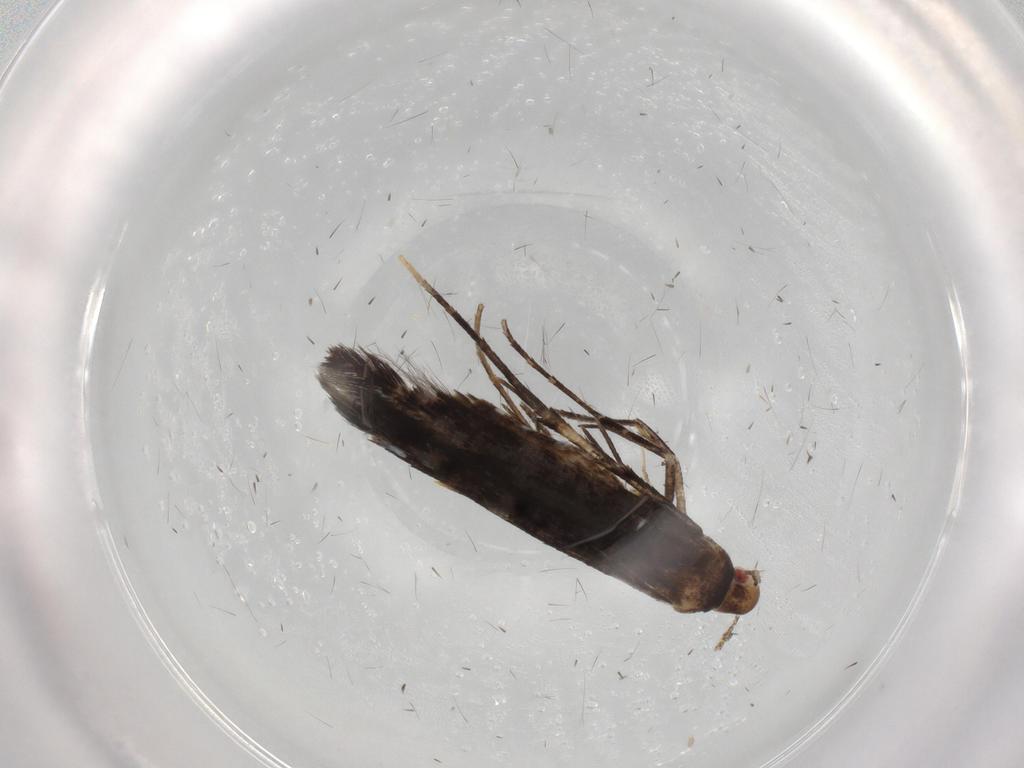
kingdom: Animalia
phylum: Arthropoda
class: Insecta
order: Lepidoptera
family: Cosmopterigidae
